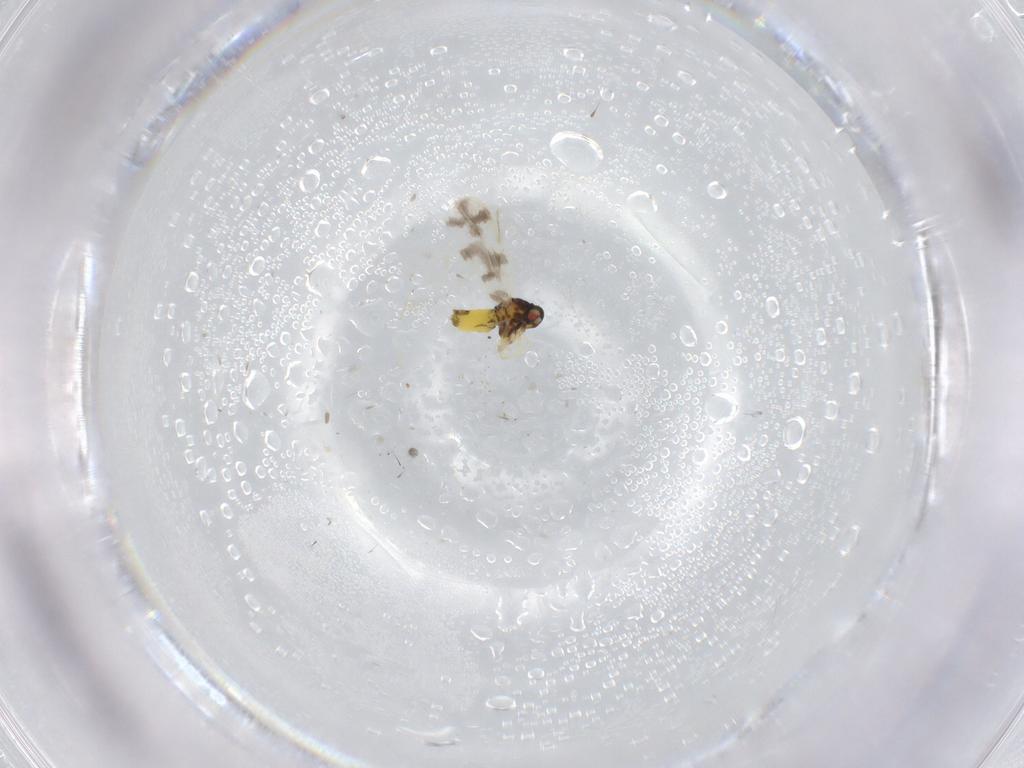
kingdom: Animalia
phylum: Arthropoda
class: Insecta
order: Hemiptera
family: Aleyrodidae
